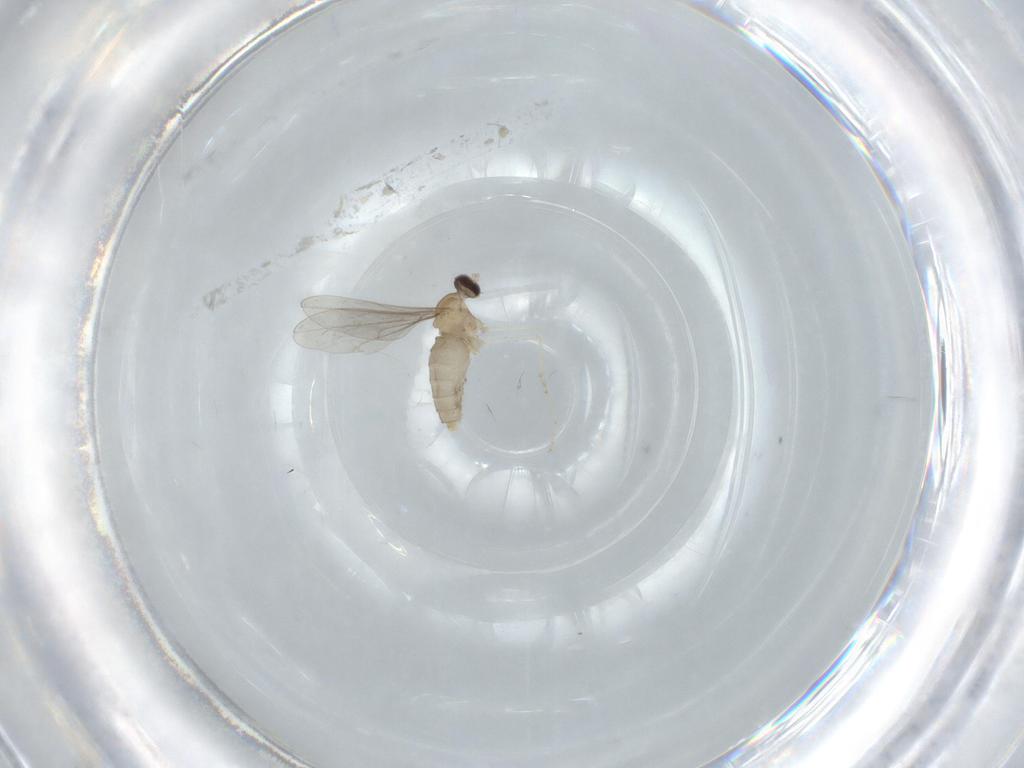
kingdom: Animalia
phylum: Arthropoda
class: Insecta
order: Diptera
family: Cecidomyiidae
